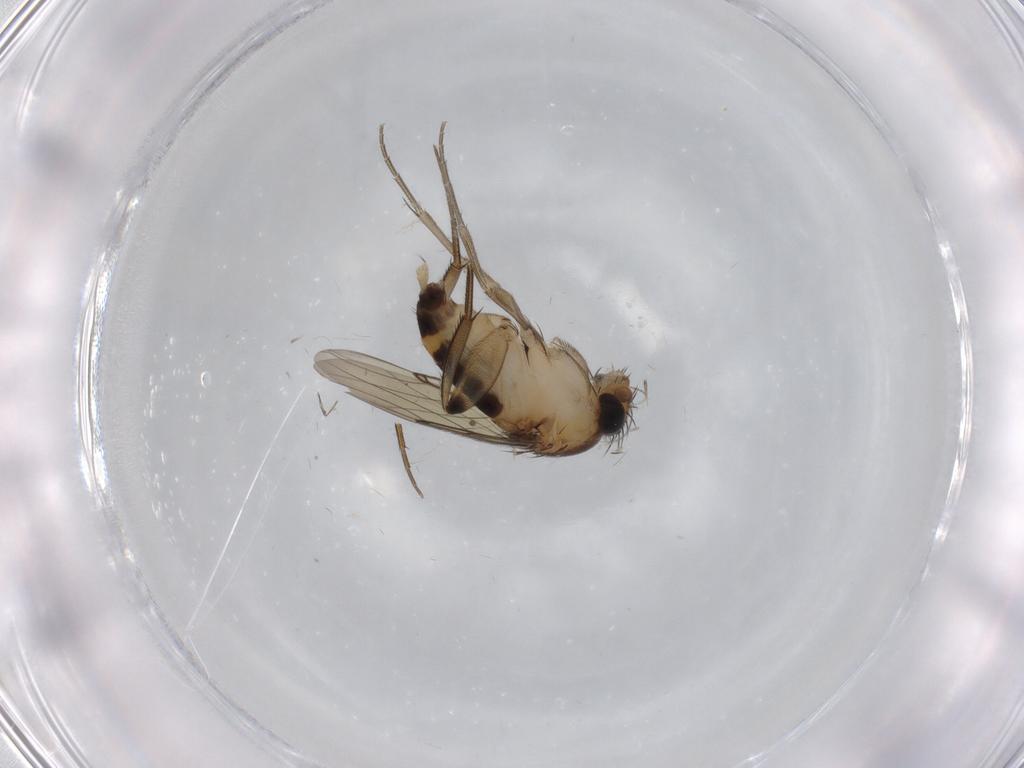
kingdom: Animalia
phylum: Arthropoda
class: Insecta
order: Diptera
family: Phoridae
